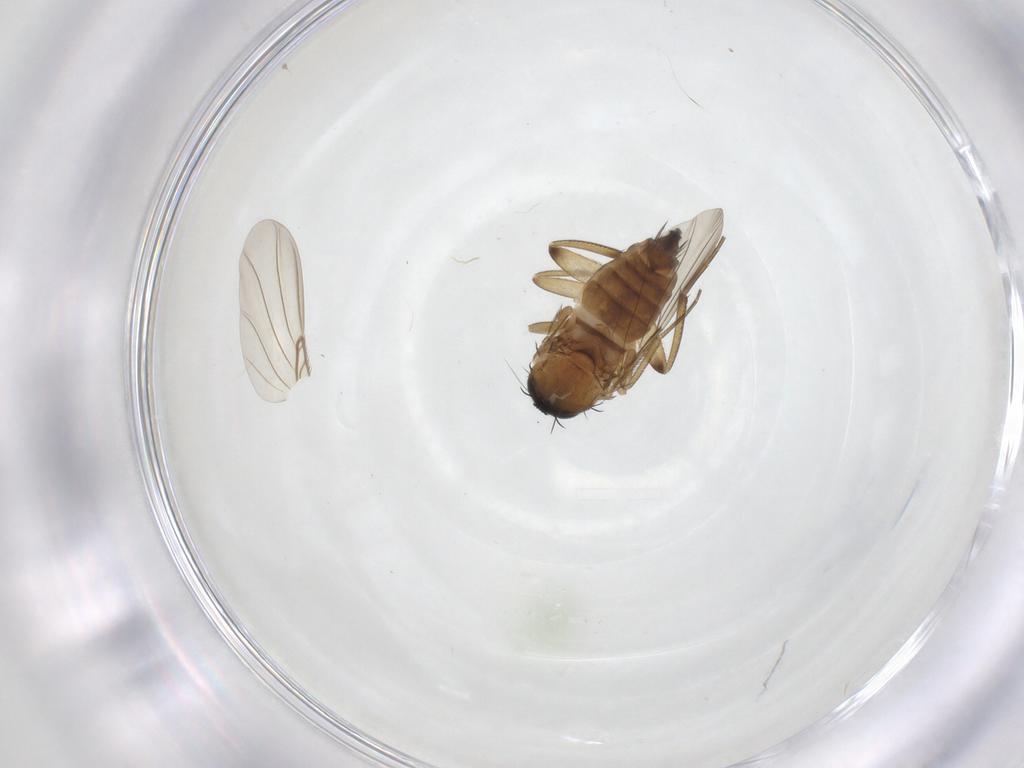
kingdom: Animalia
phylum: Arthropoda
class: Insecta
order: Diptera
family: Phoridae
